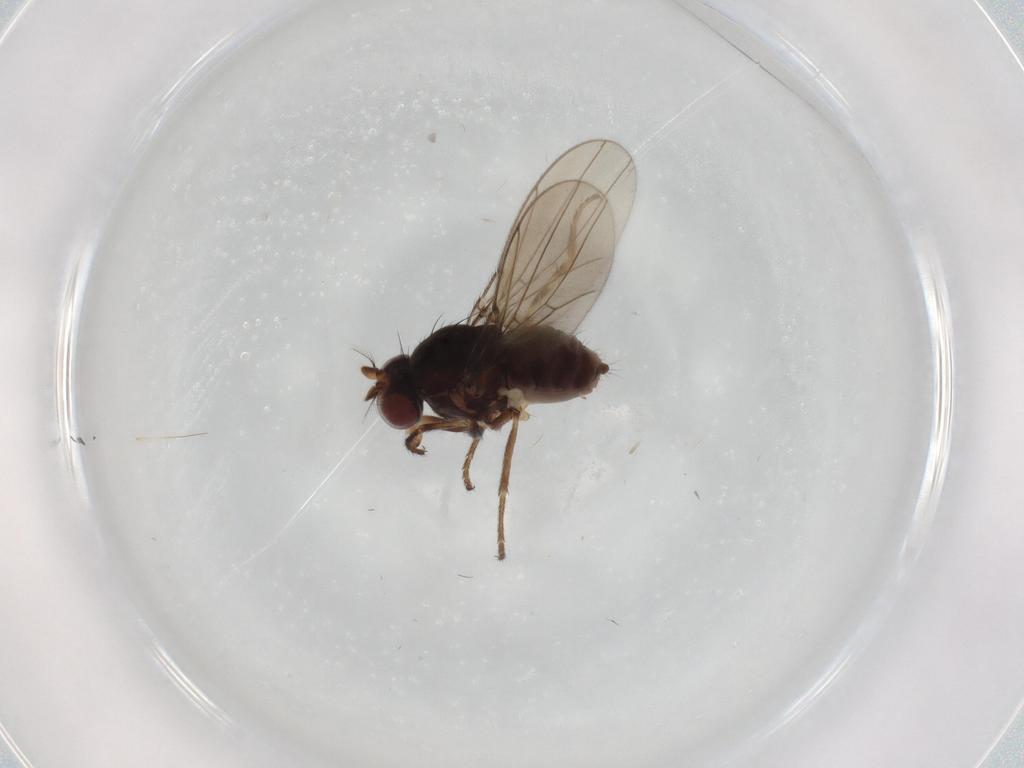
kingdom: Animalia
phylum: Arthropoda
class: Insecta
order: Diptera
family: Ephydridae
